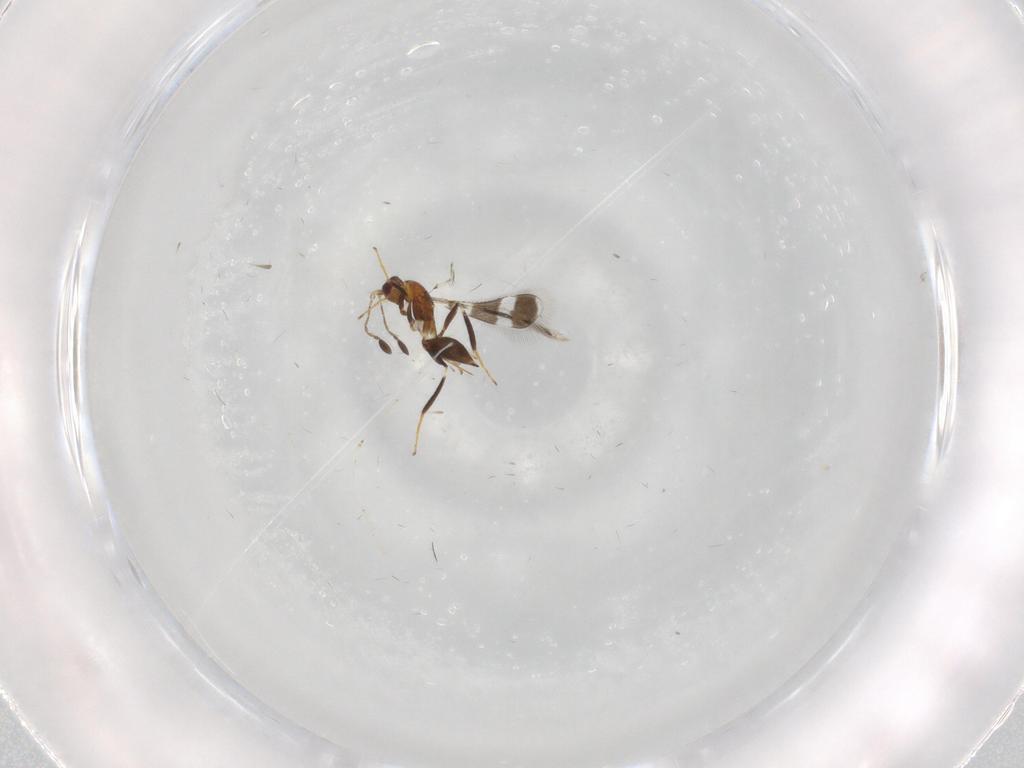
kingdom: Animalia
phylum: Arthropoda
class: Insecta
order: Hymenoptera
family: Mymaridae
